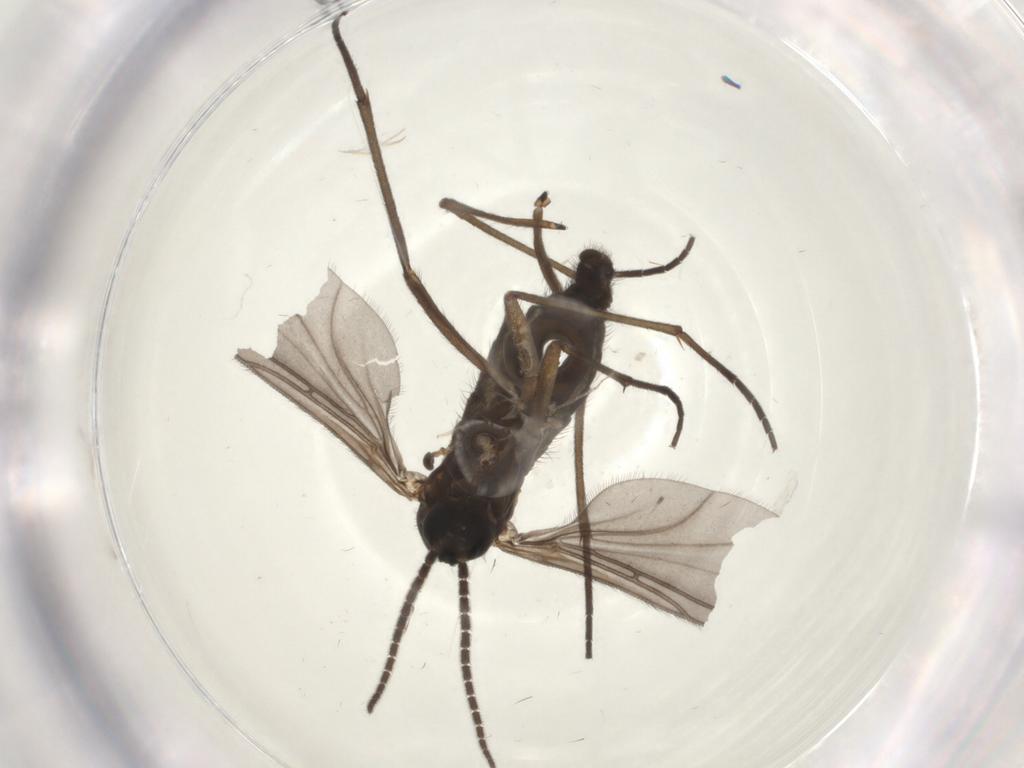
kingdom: Animalia
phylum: Arthropoda
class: Insecta
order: Diptera
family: Sciaridae
